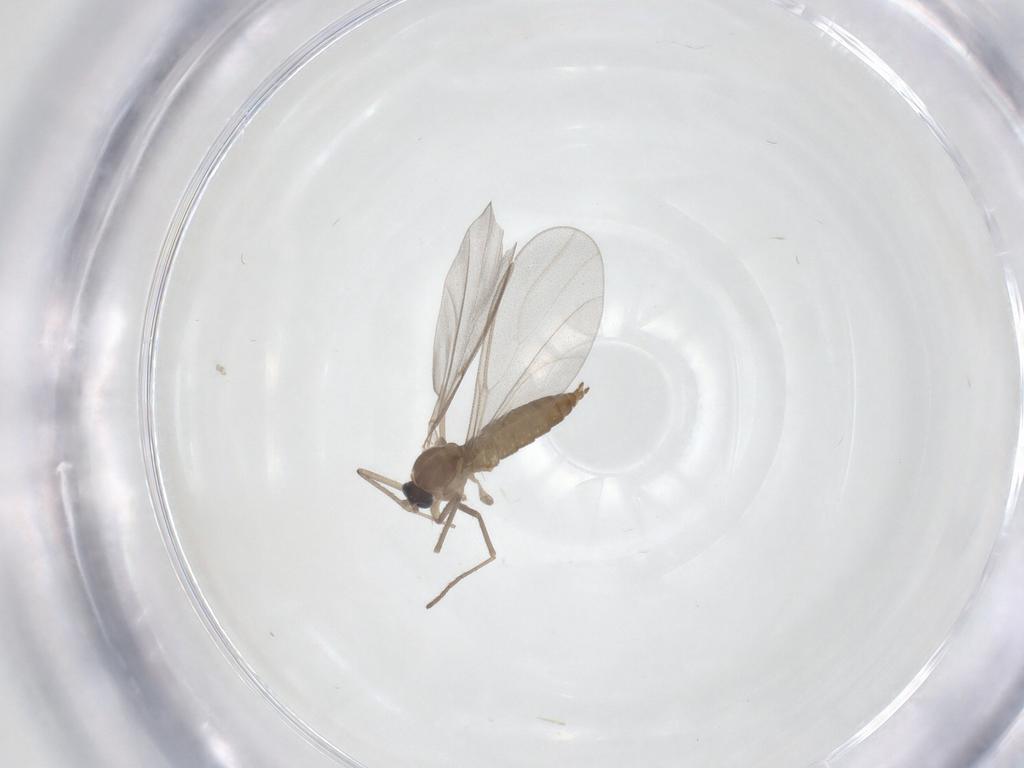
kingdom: Animalia
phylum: Arthropoda
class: Insecta
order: Diptera
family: Cecidomyiidae
